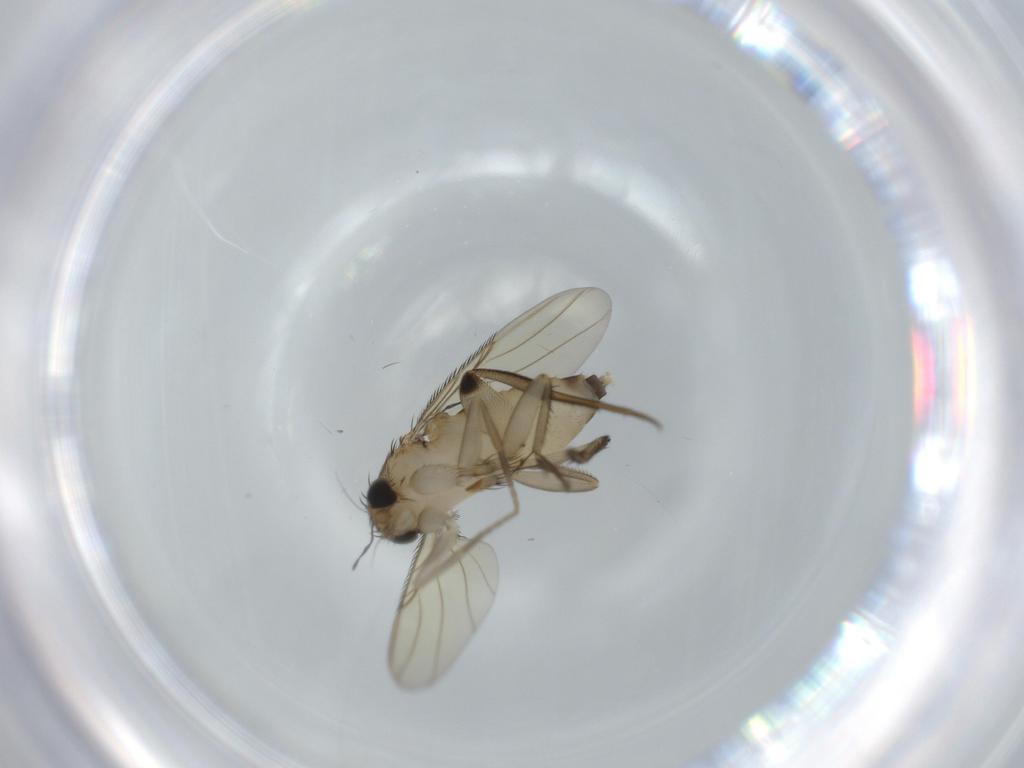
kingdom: Animalia
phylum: Arthropoda
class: Insecta
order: Diptera
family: Phoridae
